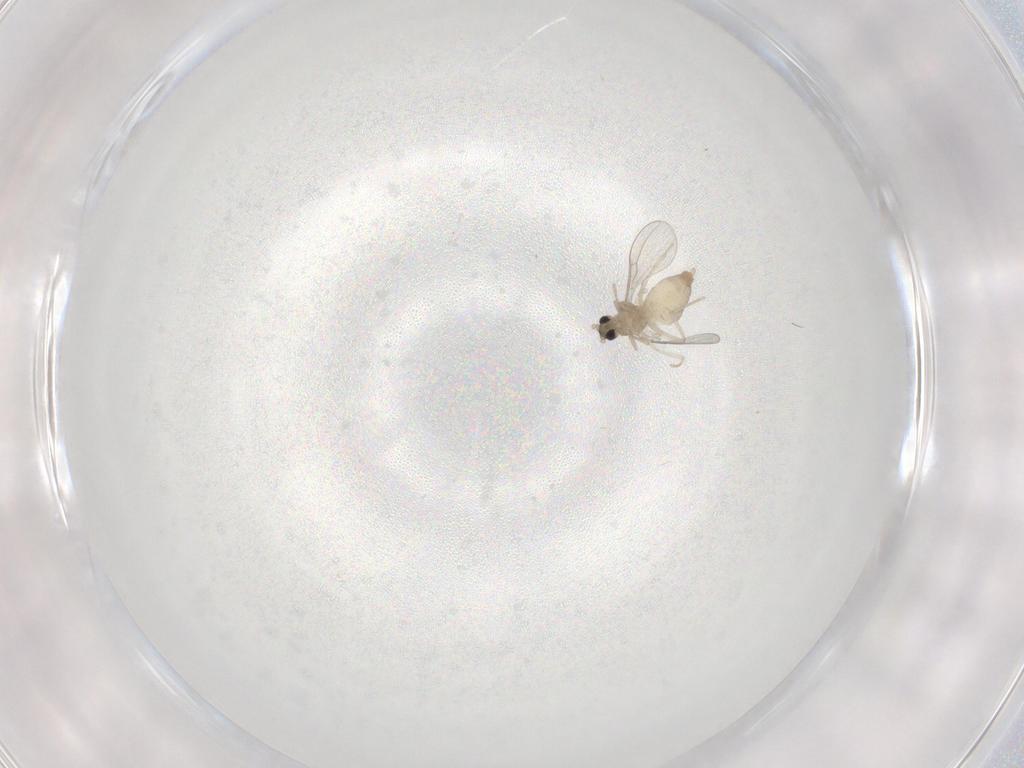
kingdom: Animalia
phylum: Arthropoda
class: Insecta
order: Diptera
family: Cecidomyiidae
